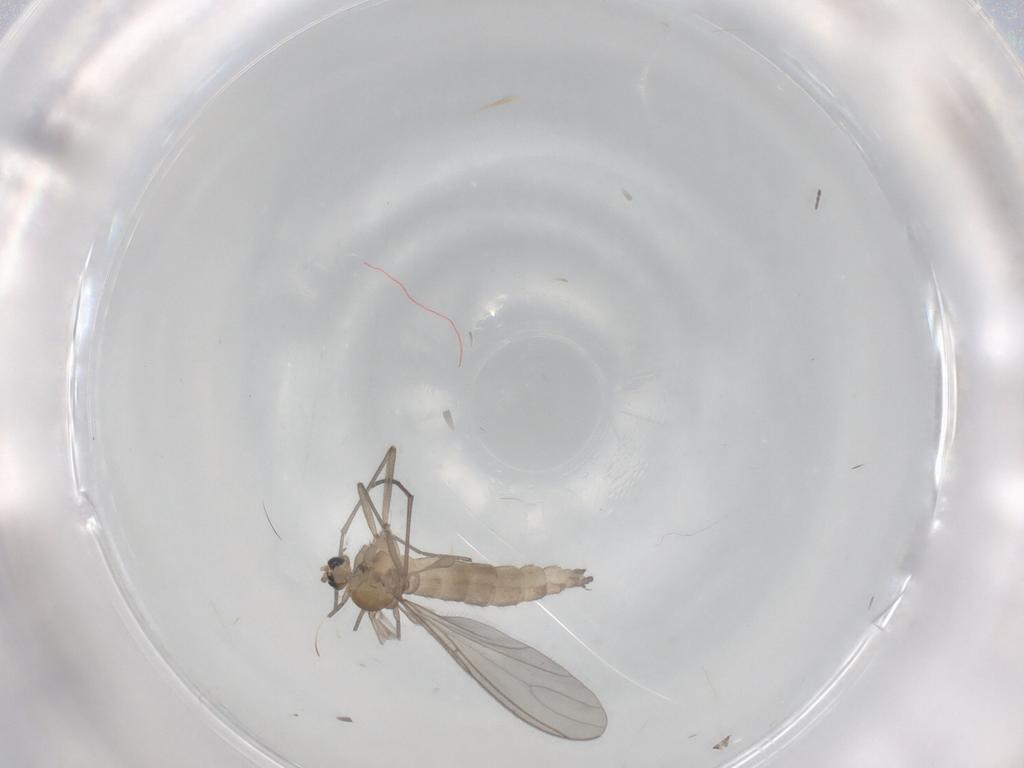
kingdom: Animalia
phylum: Arthropoda
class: Insecta
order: Diptera
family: Sciaridae
